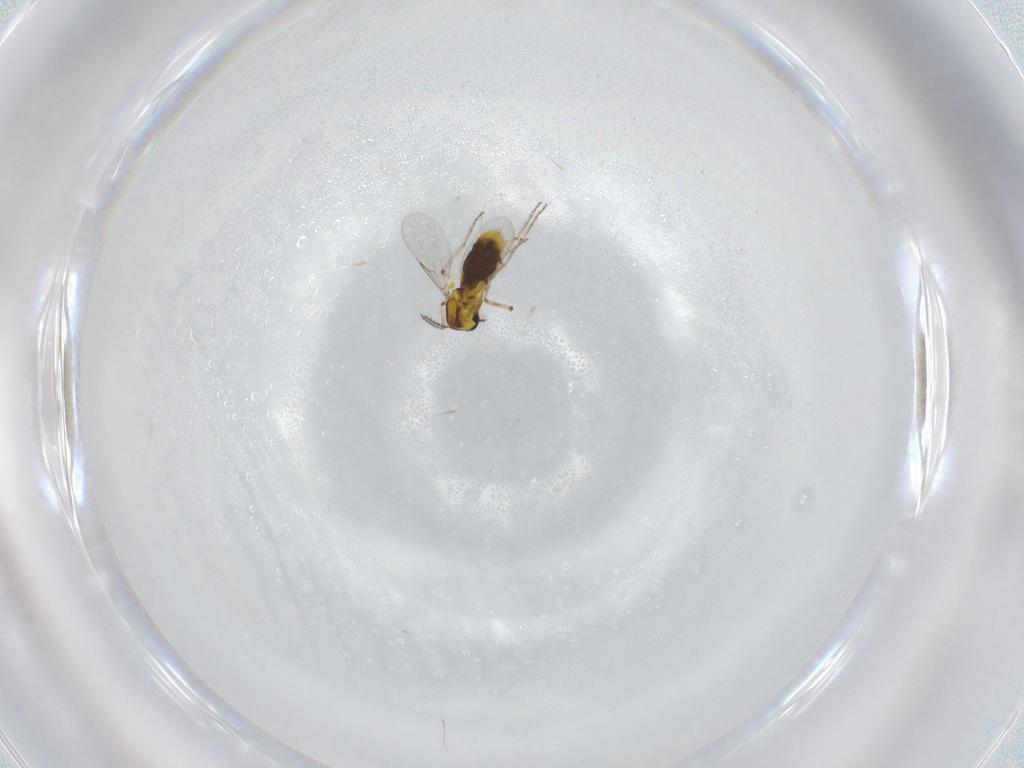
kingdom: Animalia
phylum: Arthropoda
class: Insecta
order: Diptera
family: Ceratopogonidae
